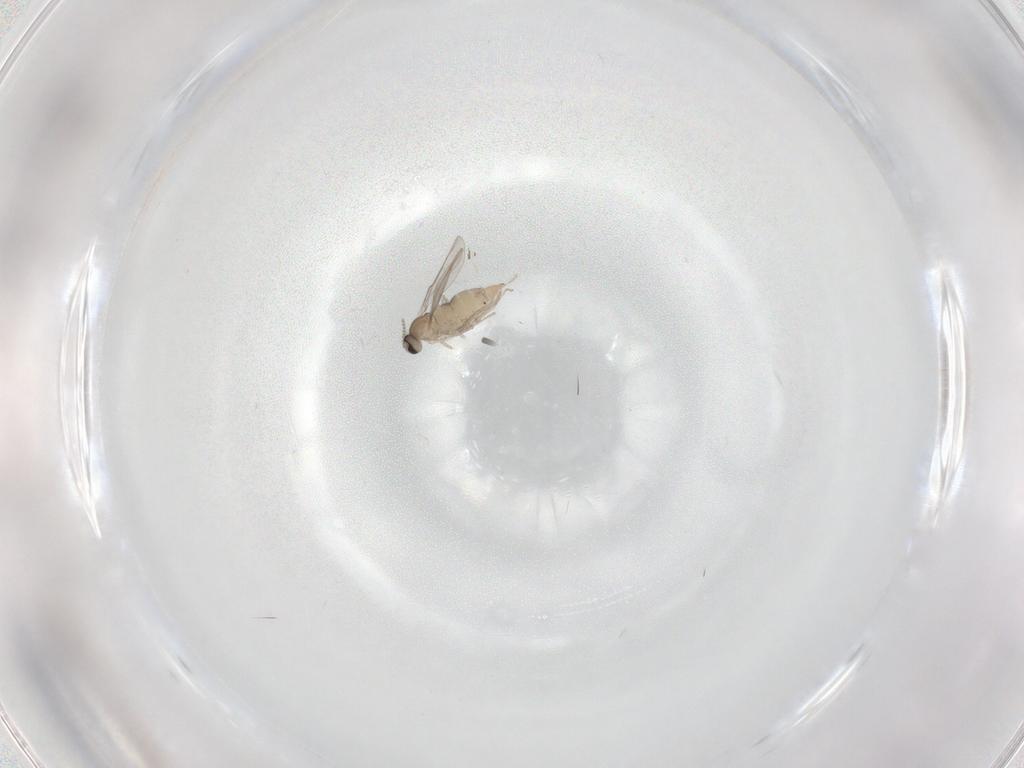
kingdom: Animalia
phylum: Arthropoda
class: Insecta
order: Diptera
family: Cecidomyiidae
